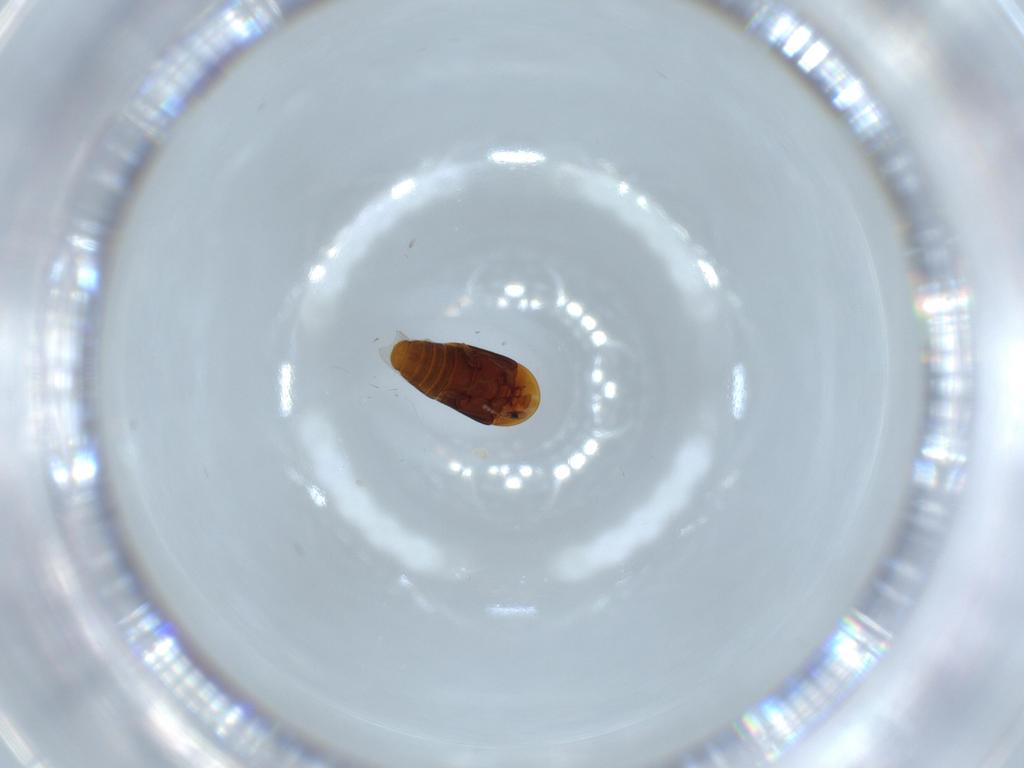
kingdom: Animalia
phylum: Arthropoda
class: Insecta
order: Coleoptera
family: Corylophidae
